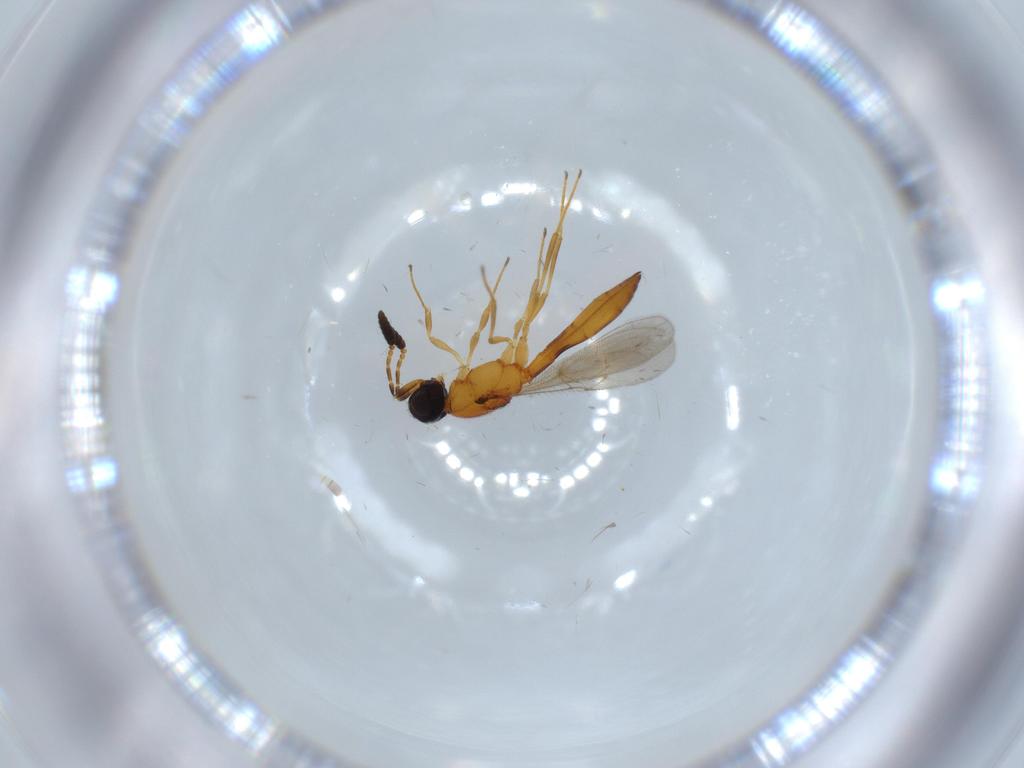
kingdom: Animalia
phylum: Arthropoda
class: Insecta
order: Hymenoptera
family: Scelionidae
